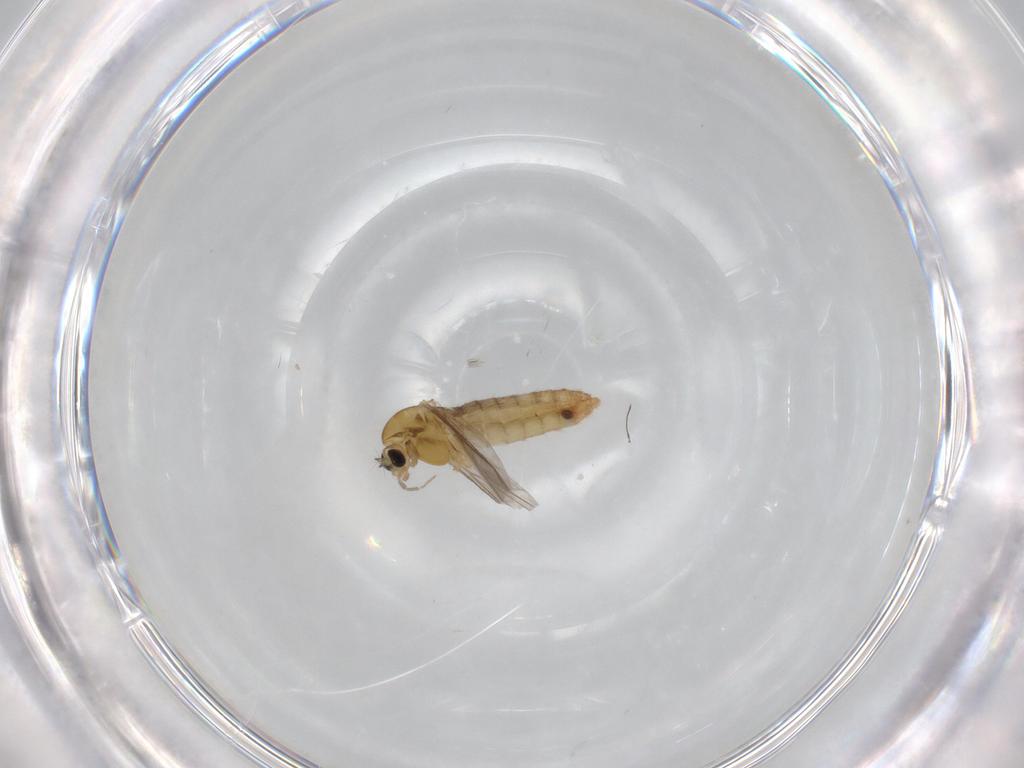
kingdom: Animalia
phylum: Arthropoda
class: Insecta
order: Diptera
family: Chironomidae
